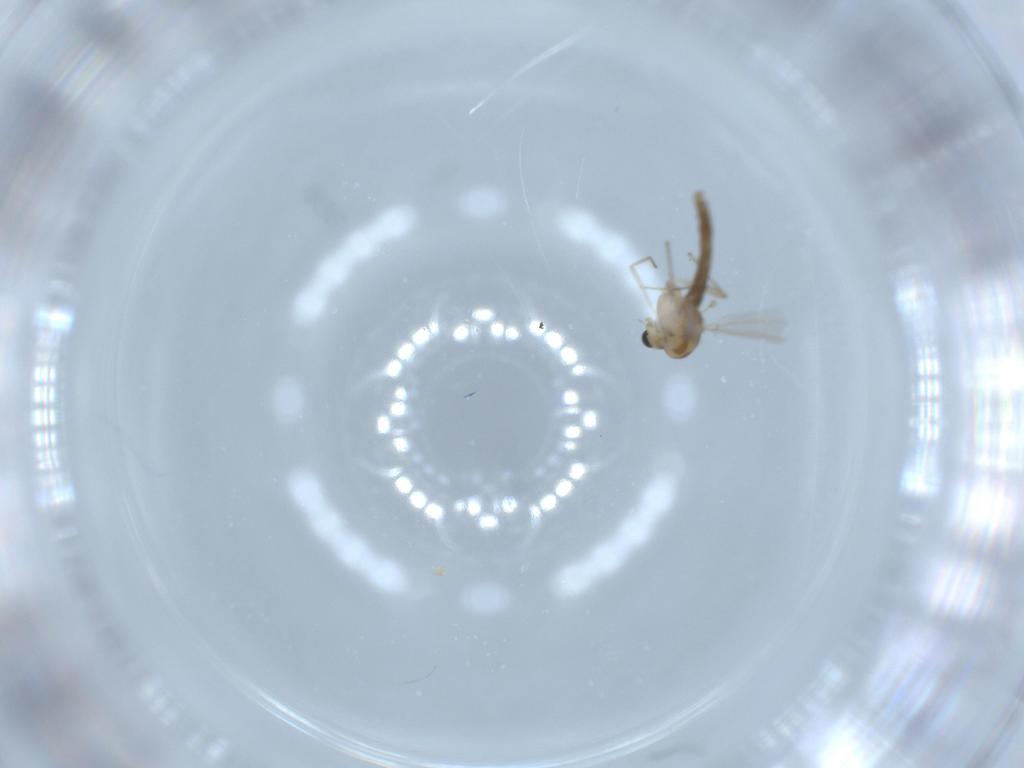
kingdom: Animalia
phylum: Arthropoda
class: Insecta
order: Diptera
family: Chironomidae
